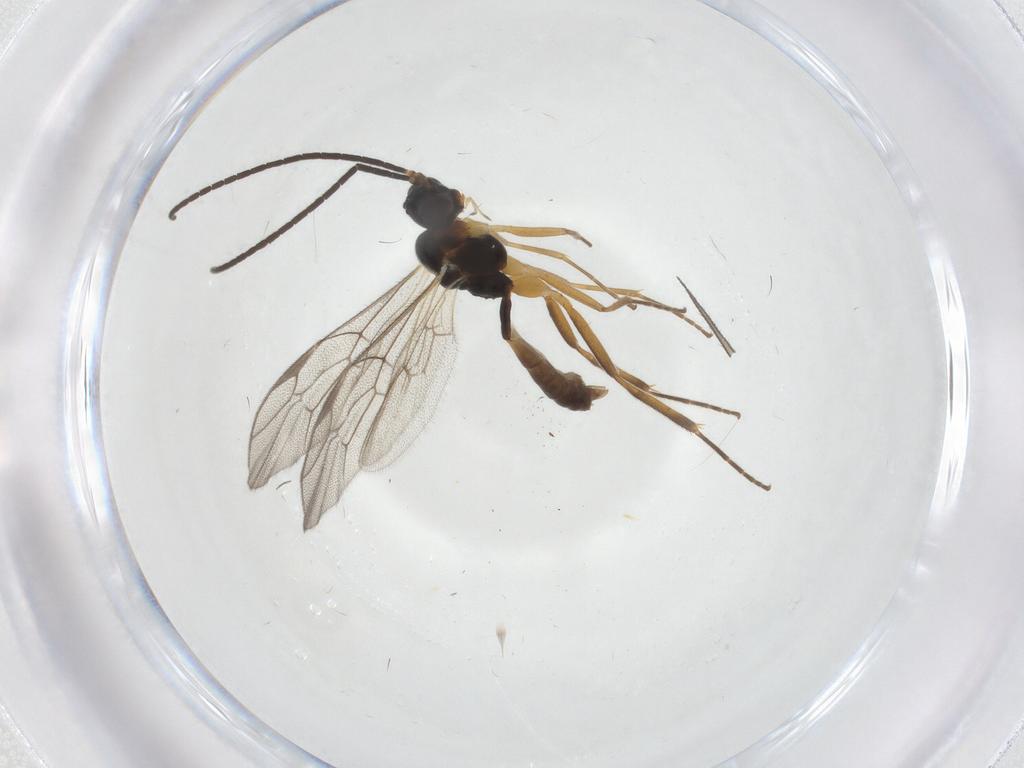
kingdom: Animalia
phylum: Arthropoda
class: Insecta
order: Hymenoptera
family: Ichneumonidae
